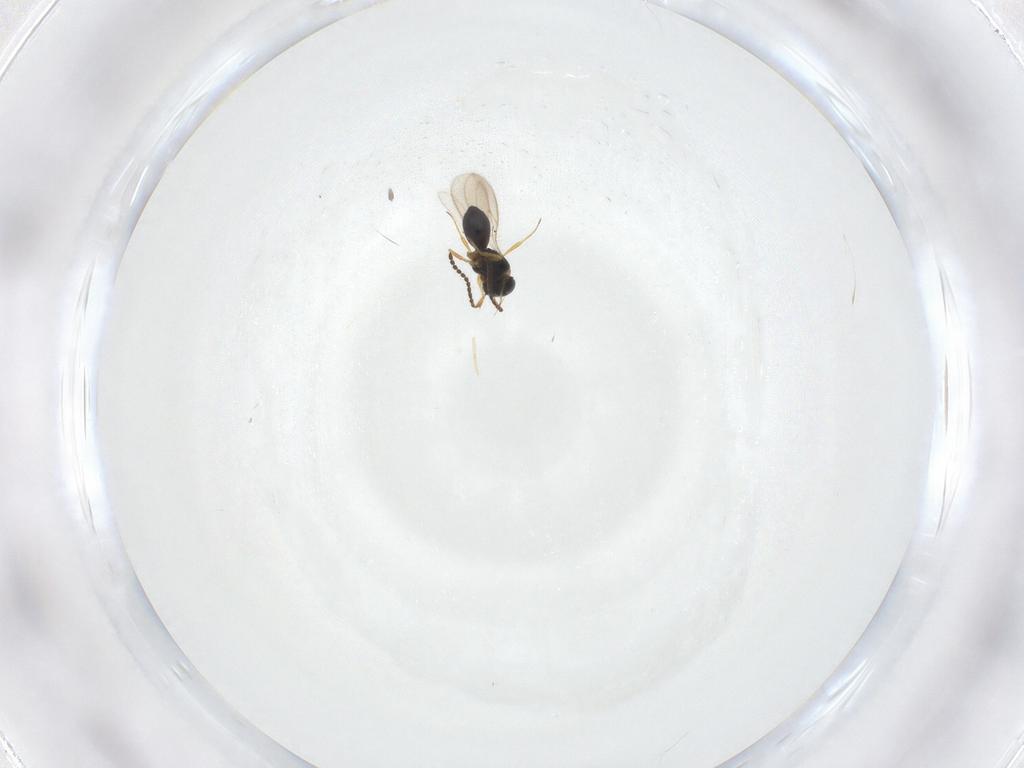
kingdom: Animalia
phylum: Arthropoda
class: Insecta
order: Hymenoptera
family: Scelionidae
